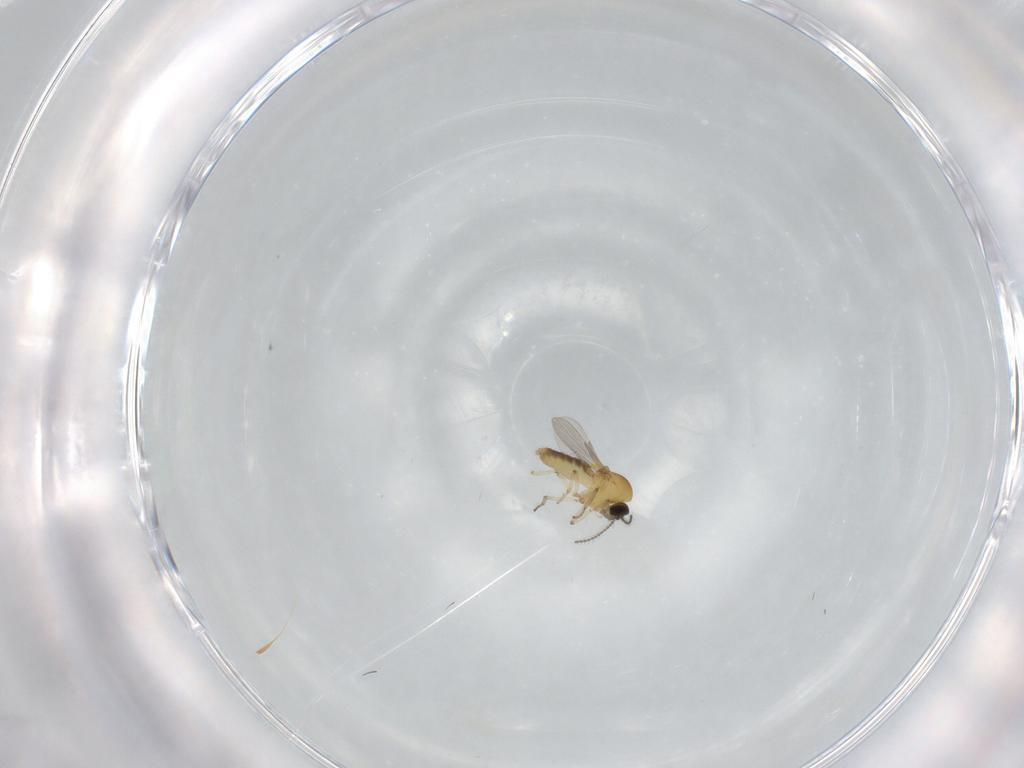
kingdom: Animalia
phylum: Arthropoda
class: Insecta
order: Diptera
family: Ceratopogonidae
